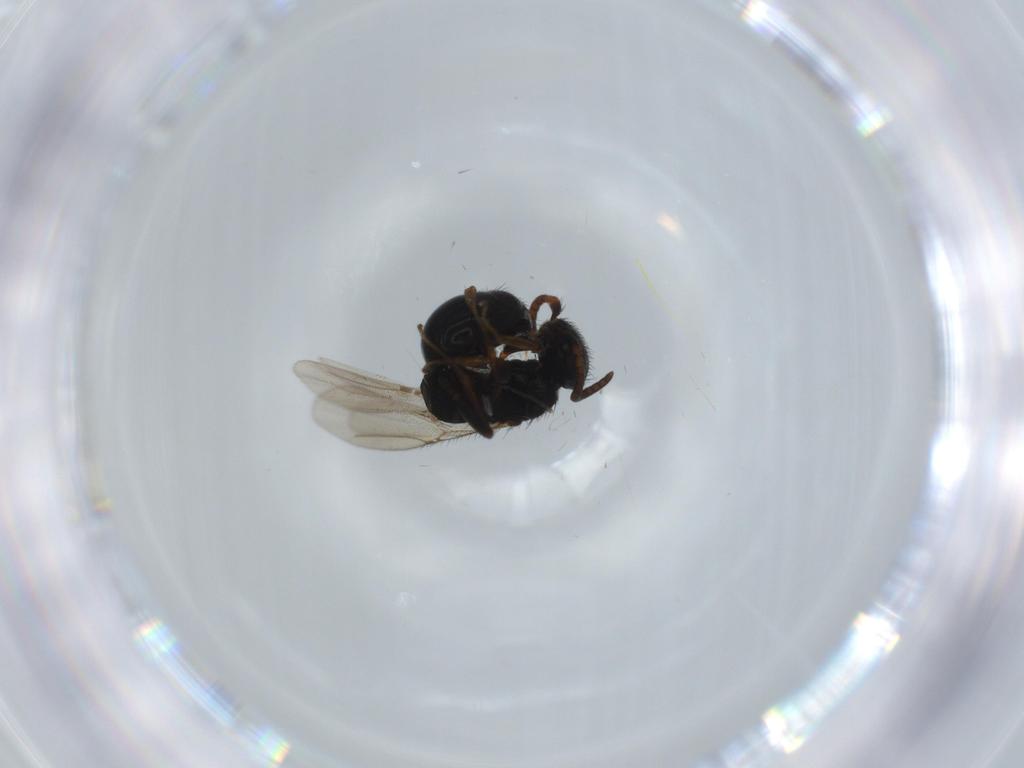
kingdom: Animalia
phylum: Arthropoda
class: Insecta
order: Hymenoptera
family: Bethylidae
